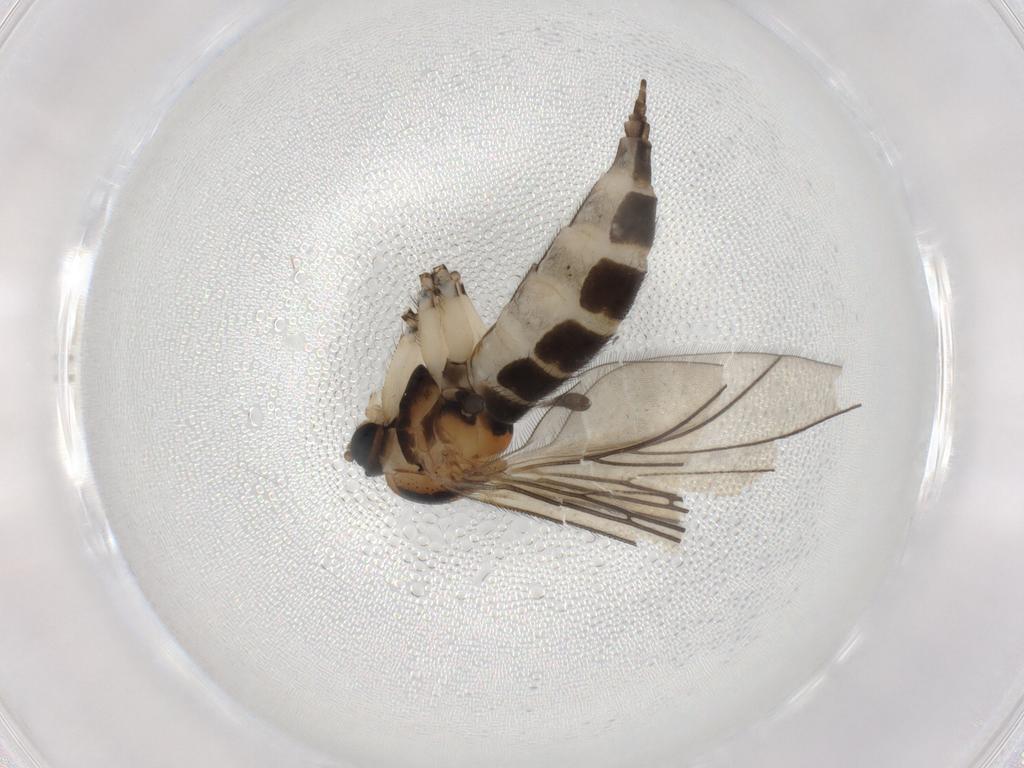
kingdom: Animalia
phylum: Arthropoda
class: Insecta
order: Diptera
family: Sciaridae
